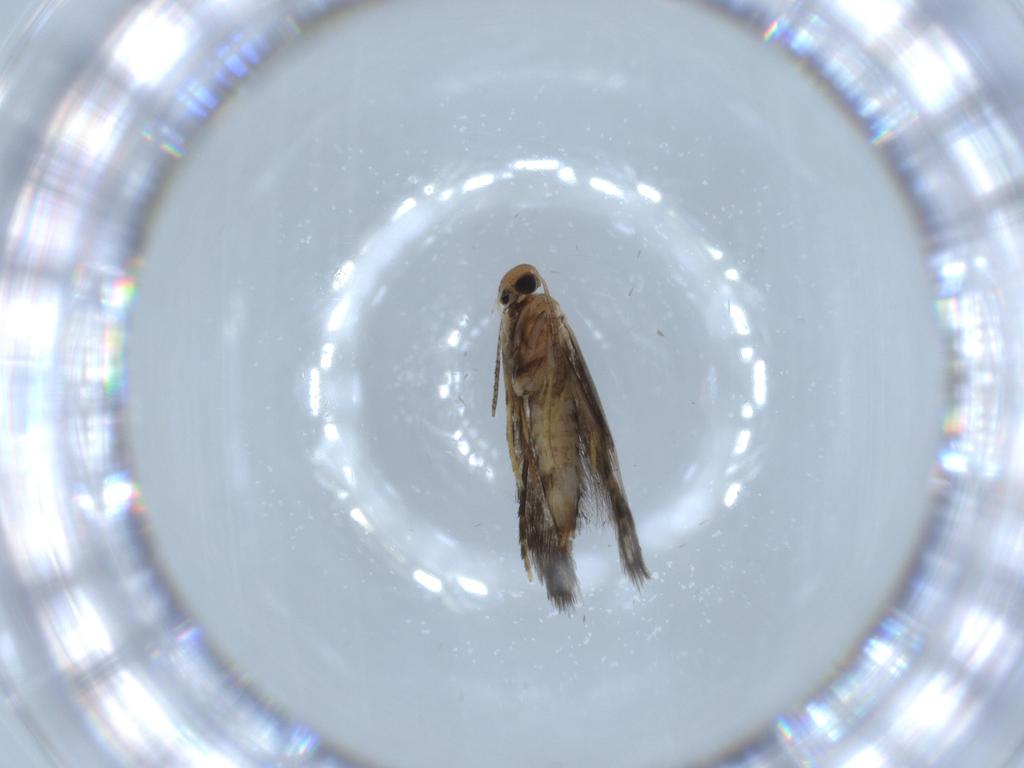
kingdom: Animalia
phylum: Arthropoda
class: Insecta
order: Lepidoptera
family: Heliozelidae
